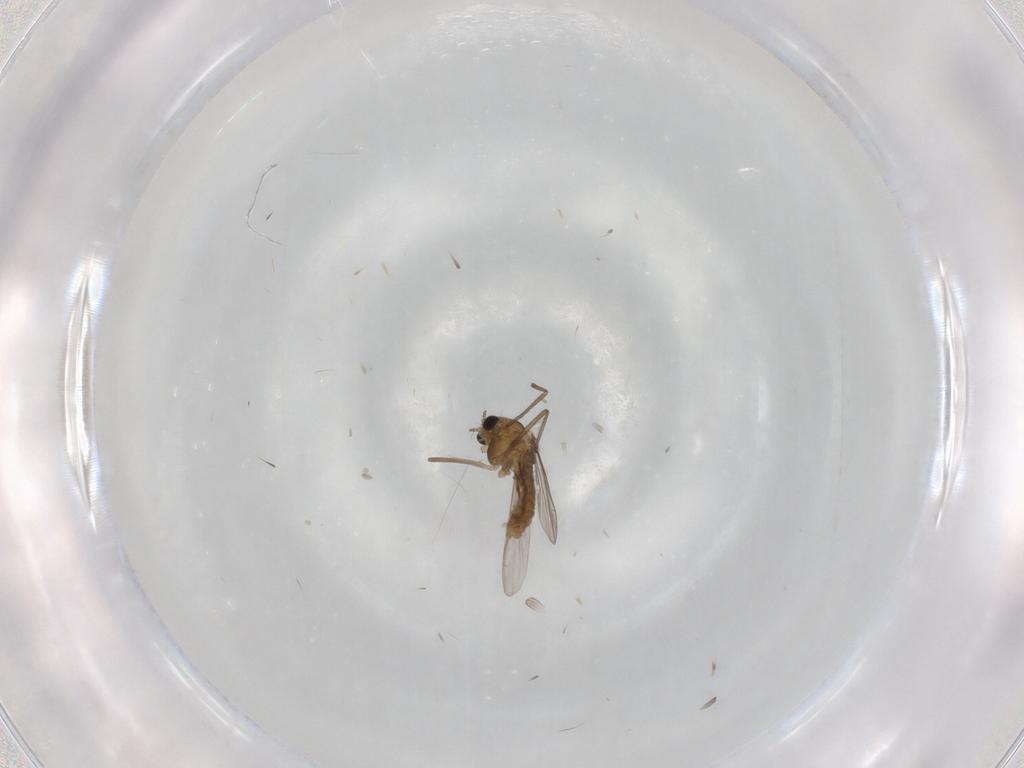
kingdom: Animalia
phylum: Arthropoda
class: Insecta
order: Diptera
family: Chironomidae
